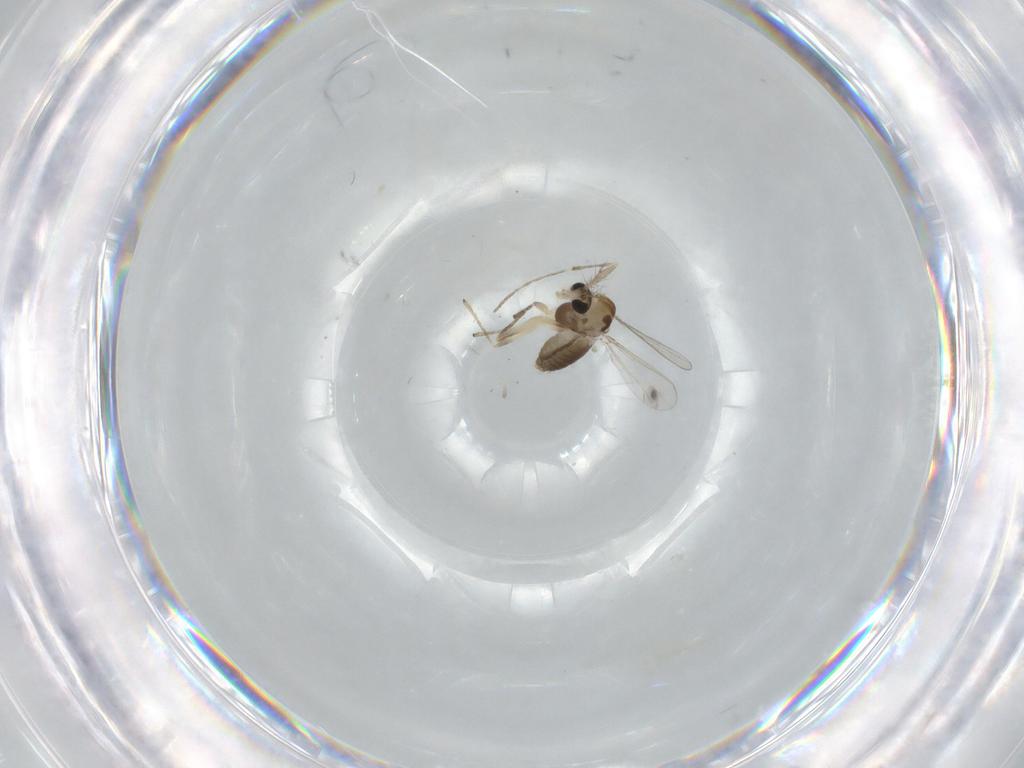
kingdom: Animalia
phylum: Arthropoda
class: Insecta
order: Diptera
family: Chironomidae
